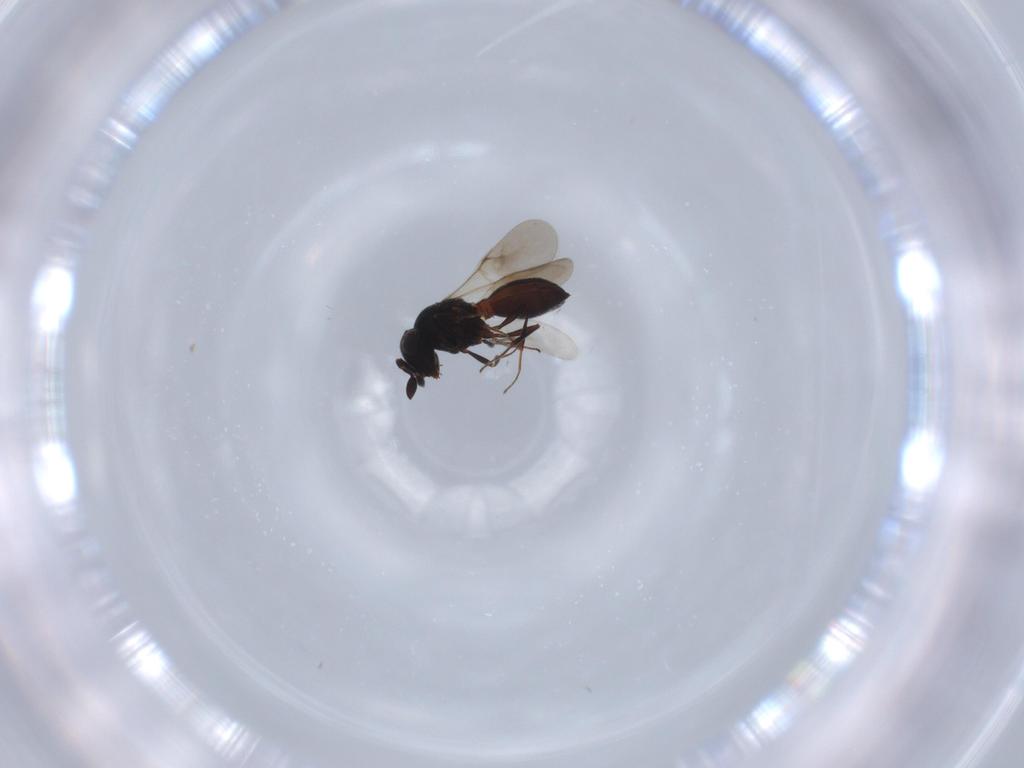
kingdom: Animalia
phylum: Arthropoda
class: Insecta
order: Hymenoptera
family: Scelionidae
